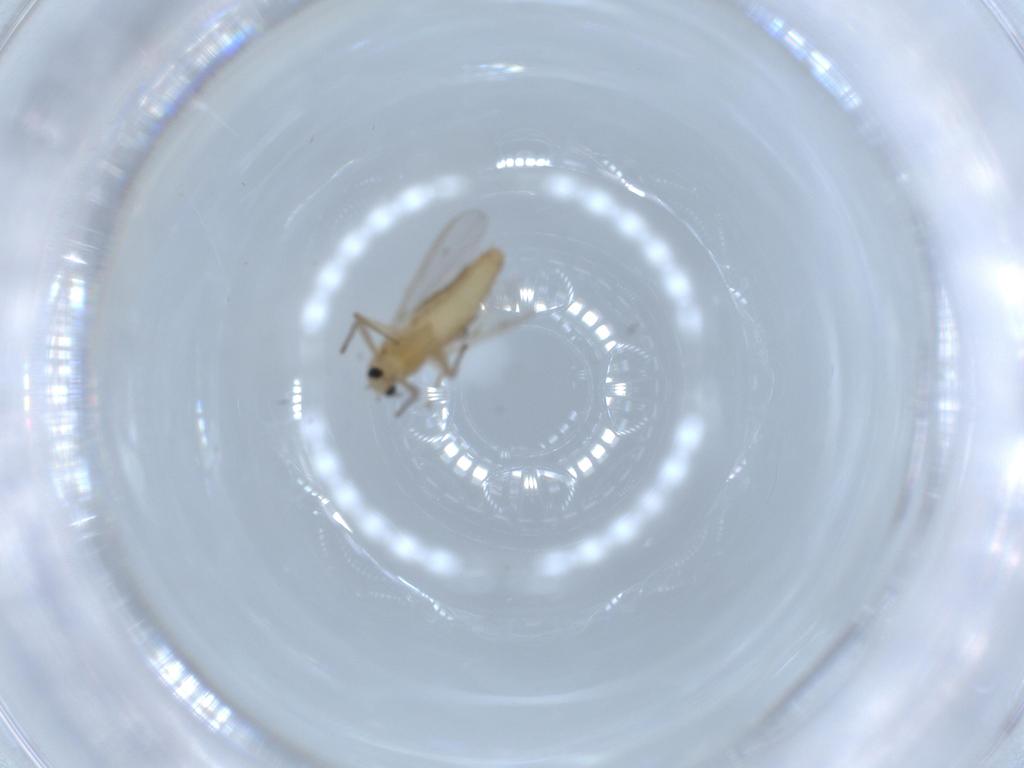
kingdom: Animalia
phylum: Arthropoda
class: Insecta
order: Diptera
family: Chironomidae
